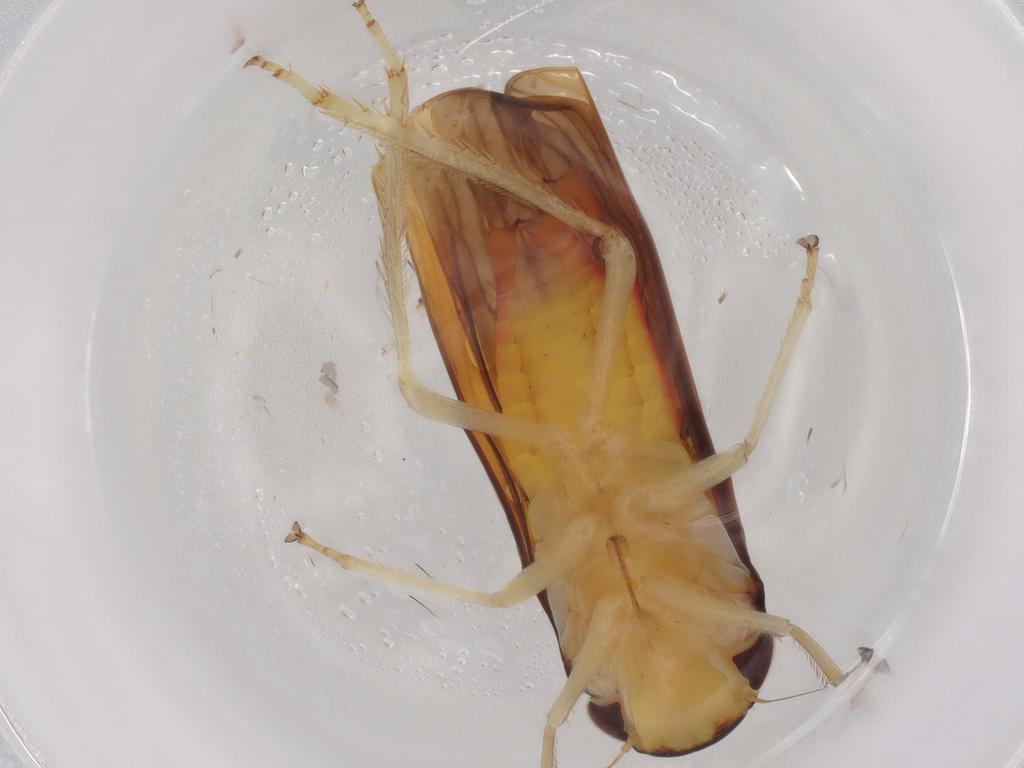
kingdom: Animalia
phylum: Arthropoda
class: Insecta
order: Hemiptera
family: Cicadellidae
